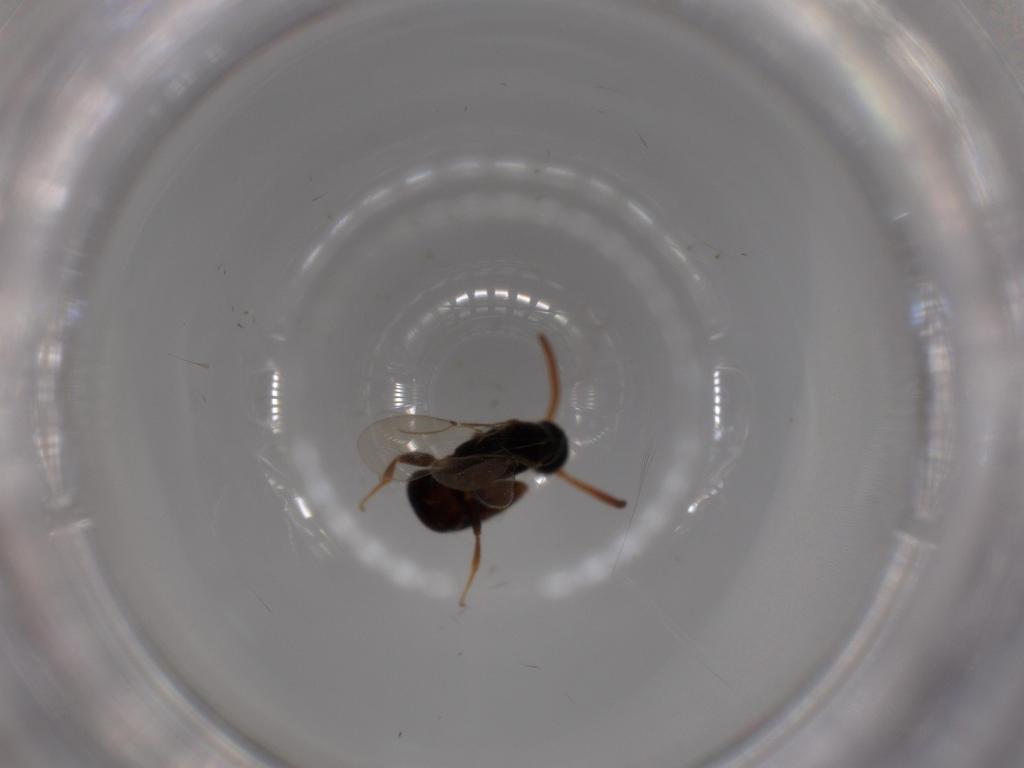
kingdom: Animalia
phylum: Arthropoda
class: Insecta
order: Hymenoptera
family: Bethylidae
